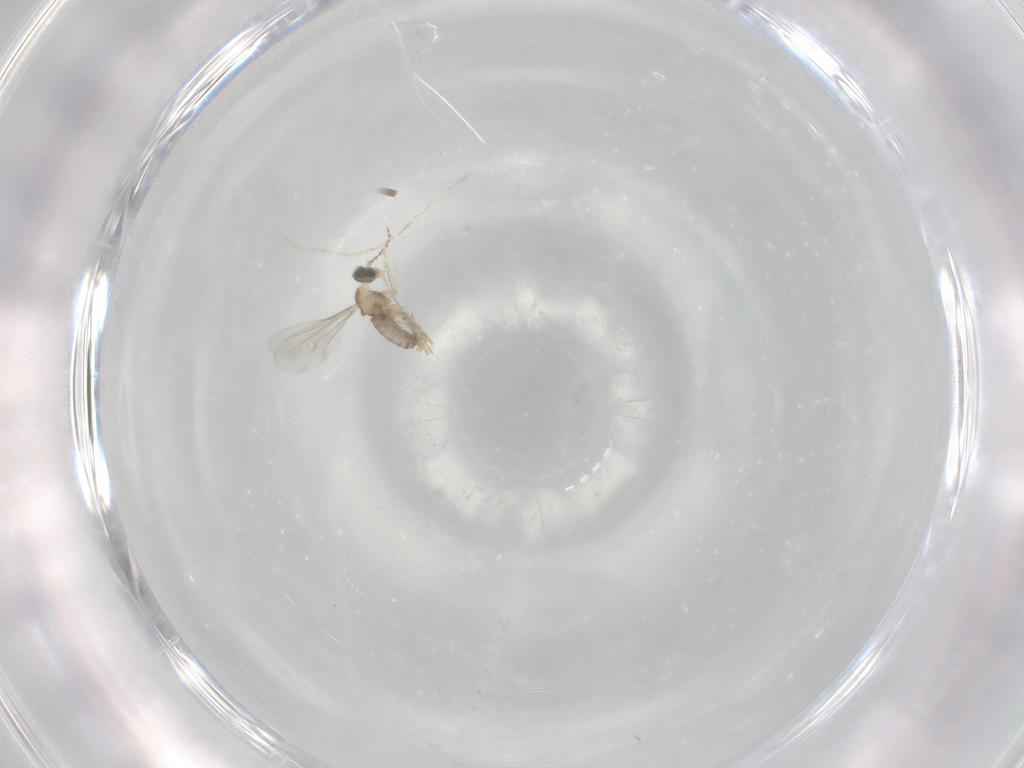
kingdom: Animalia
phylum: Arthropoda
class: Insecta
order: Diptera
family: Cecidomyiidae
